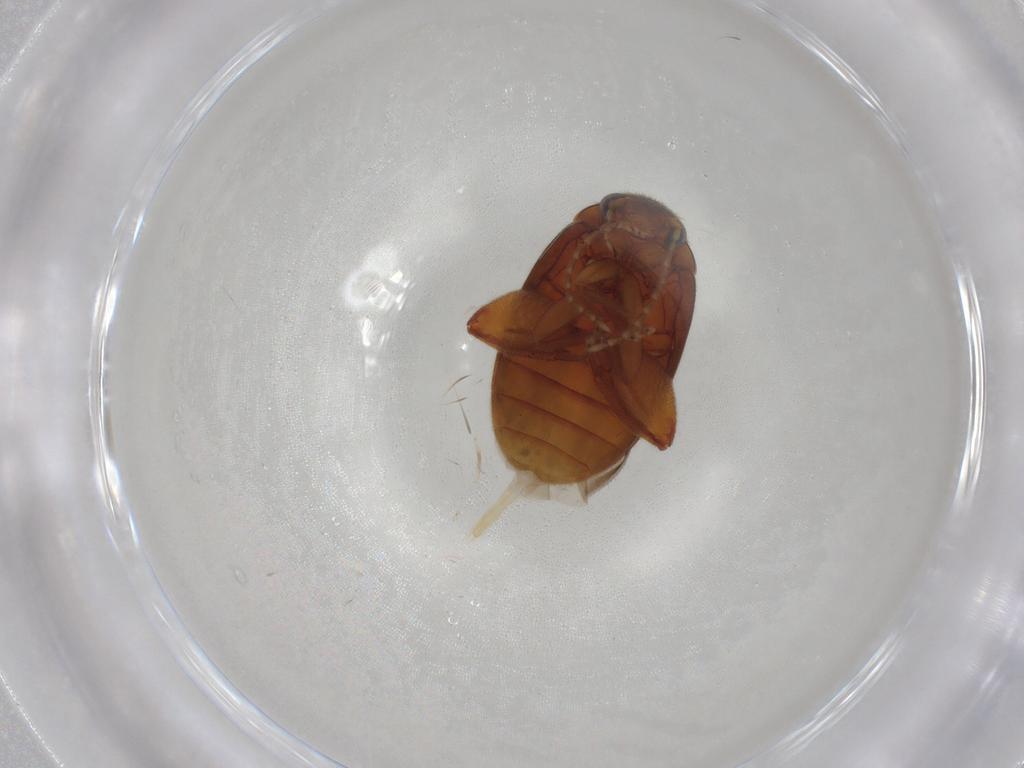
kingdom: Animalia
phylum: Arthropoda
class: Insecta
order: Coleoptera
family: Scirtidae
